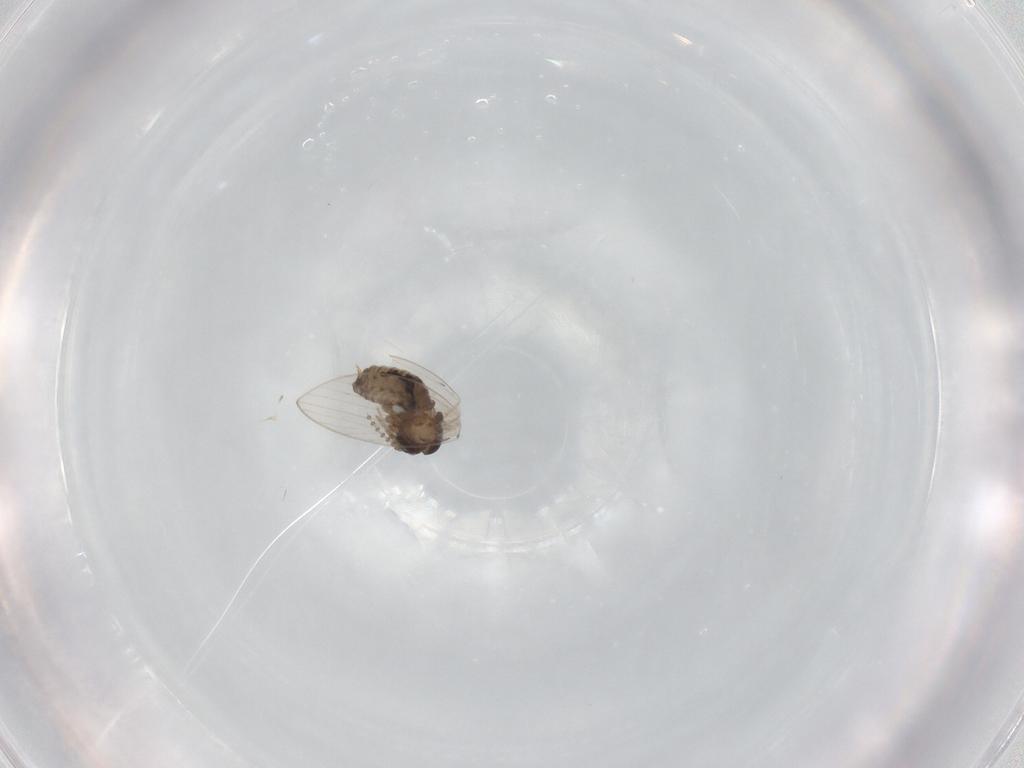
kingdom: Animalia
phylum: Arthropoda
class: Insecta
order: Diptera
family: Psychodidae
